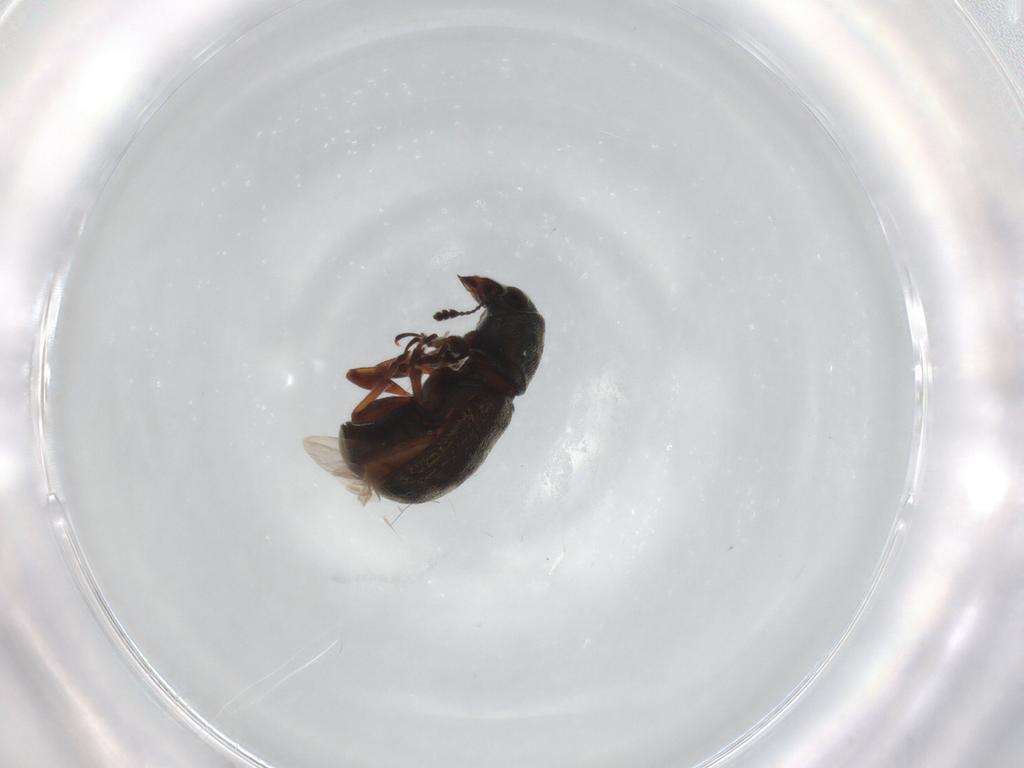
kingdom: Animalia
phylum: Arthropoda
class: Insecta
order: Coleoptera
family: Anthribidae
